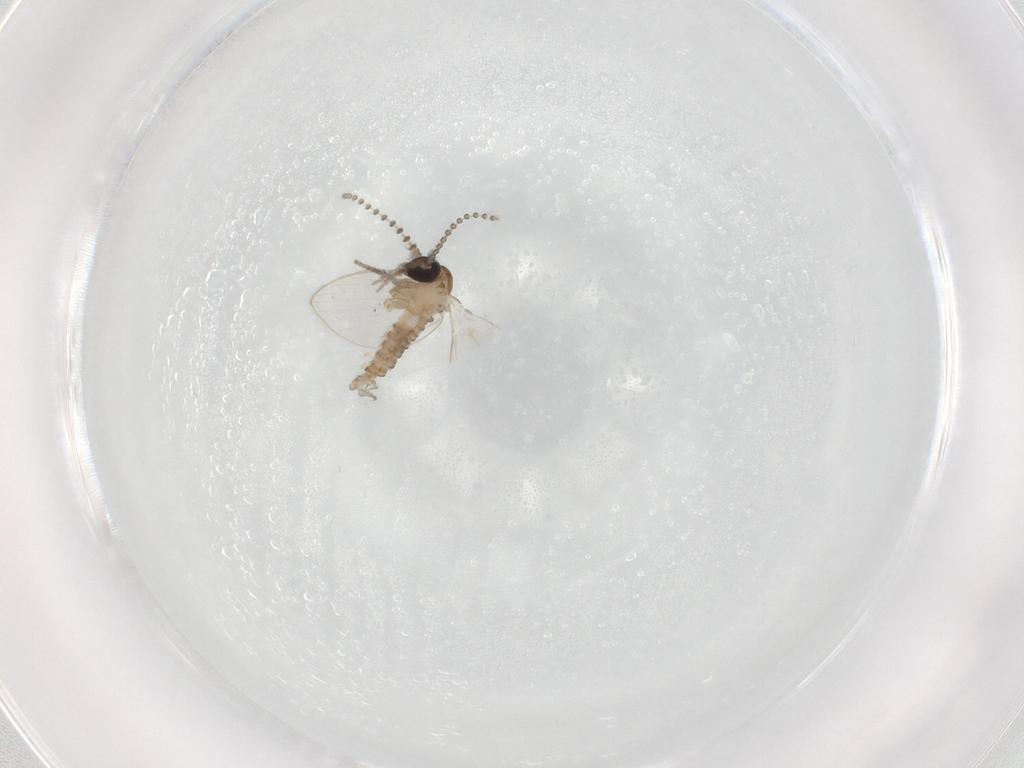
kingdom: Animalia
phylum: Arthropoda
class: Insecta
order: Diptera
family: Psychodidae
